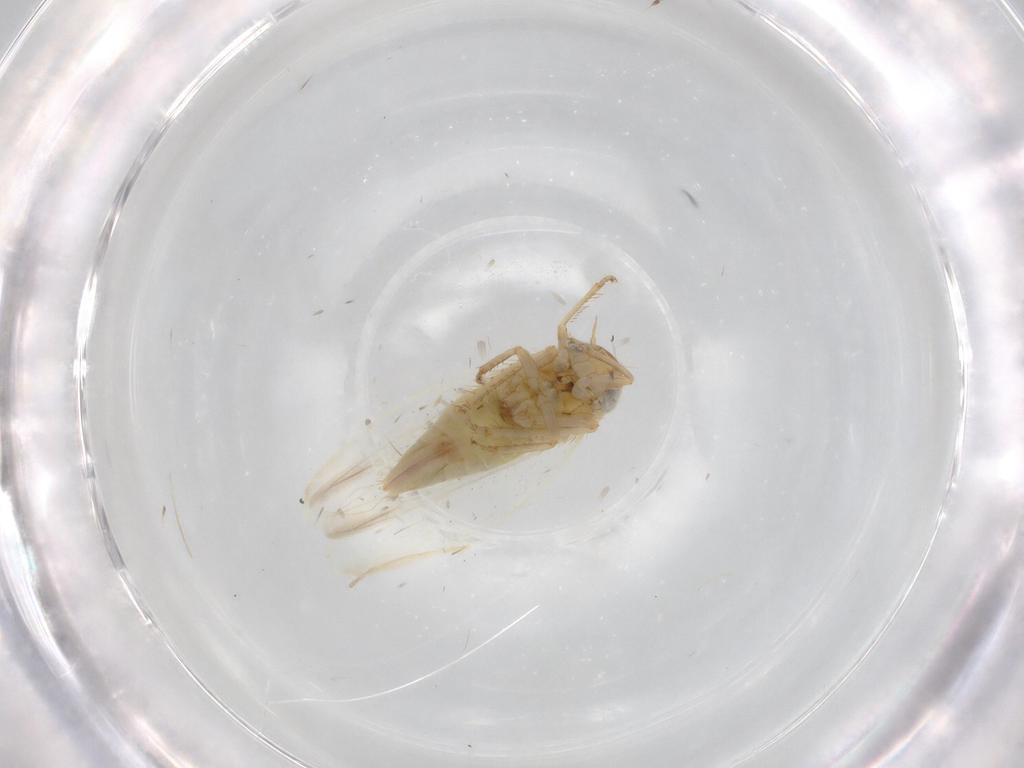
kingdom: Animalia
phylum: Arthropoda
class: Insecta
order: Hemiptera
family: Cicadellidae
